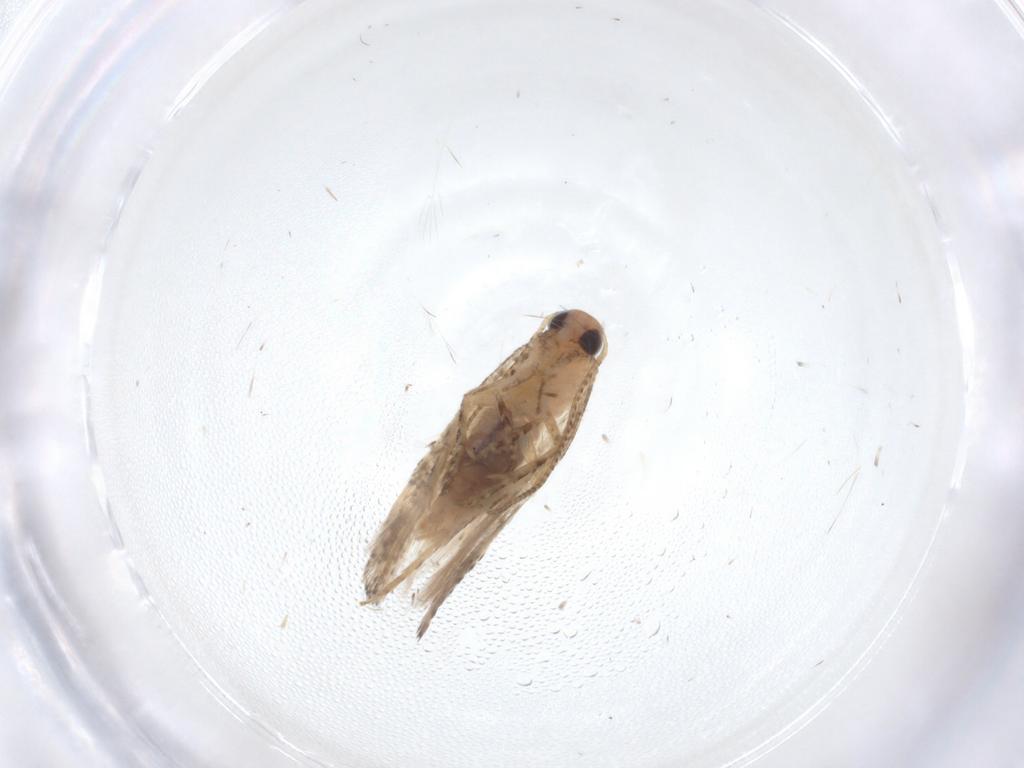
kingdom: Animalia
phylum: Arthropoda
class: Insecta
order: Lepidoptera
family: Gelechiidae
